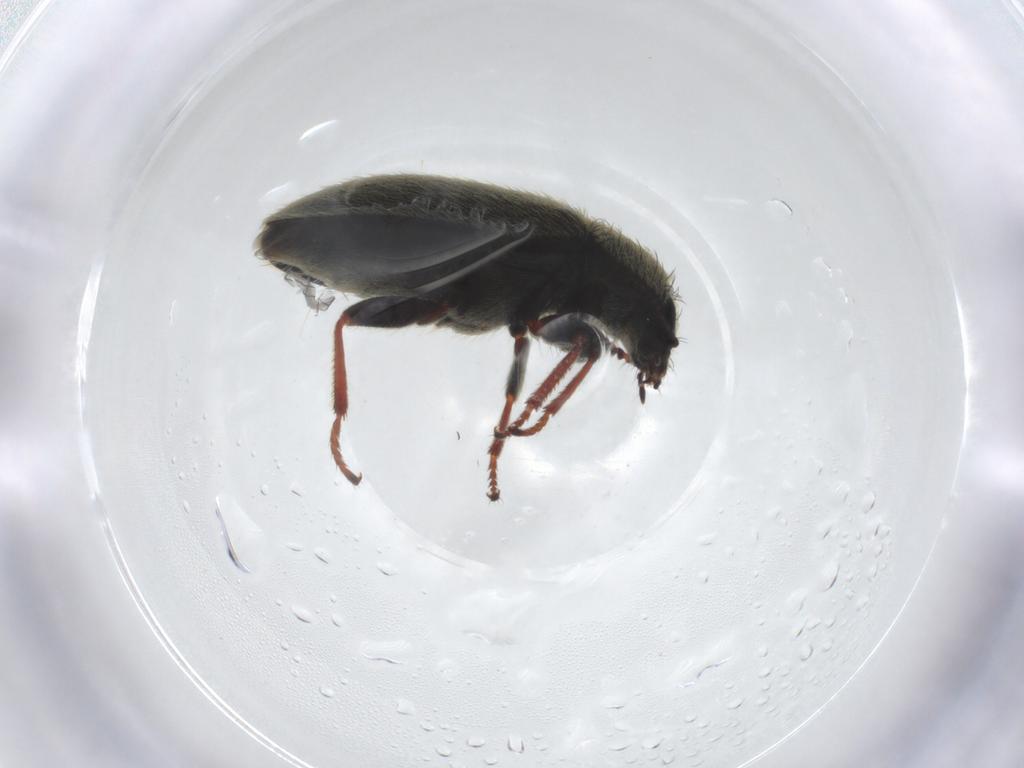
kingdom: Animalia
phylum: Arthropoda
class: Insecta
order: Coleoptera
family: Melyridae
